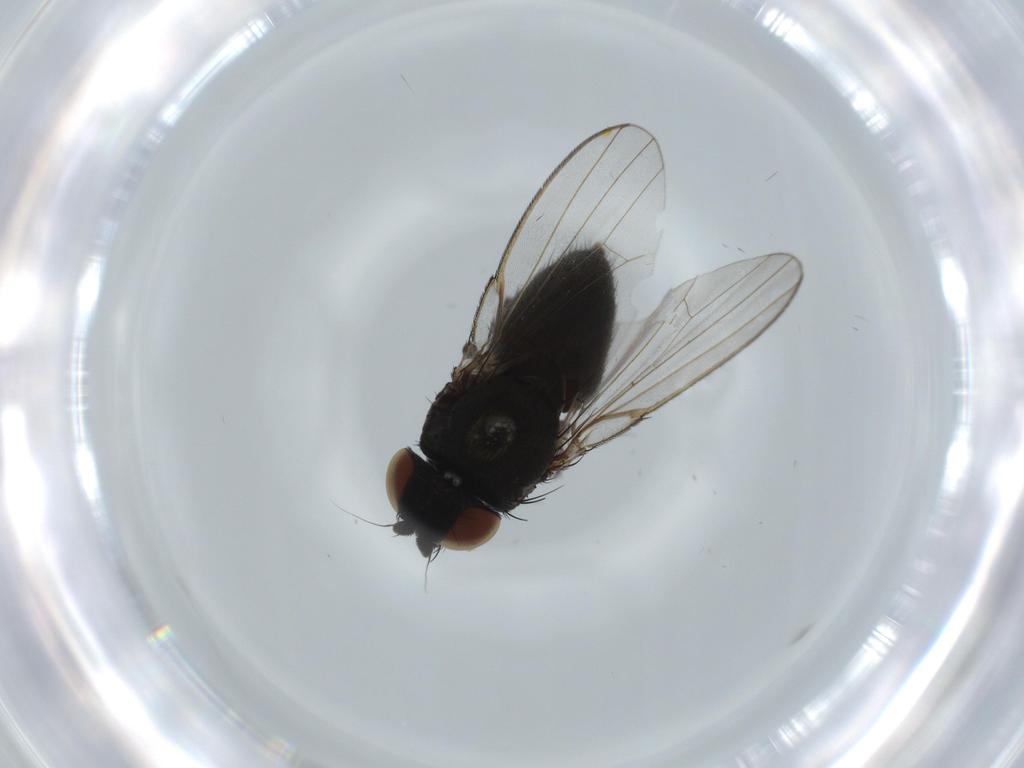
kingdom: Animalia
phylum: Arthropoda
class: Insecta
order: Diptera
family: Milichiidae
